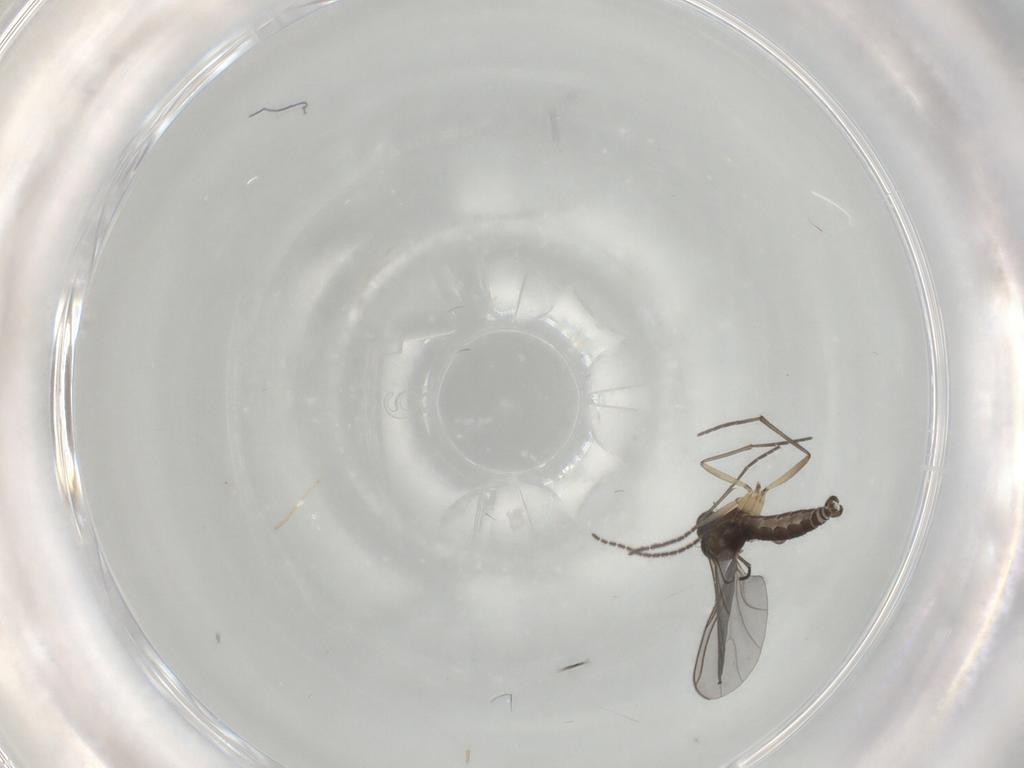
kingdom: Animalia
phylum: Arthropoda
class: Insecta
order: Diptera
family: Sciaridae
